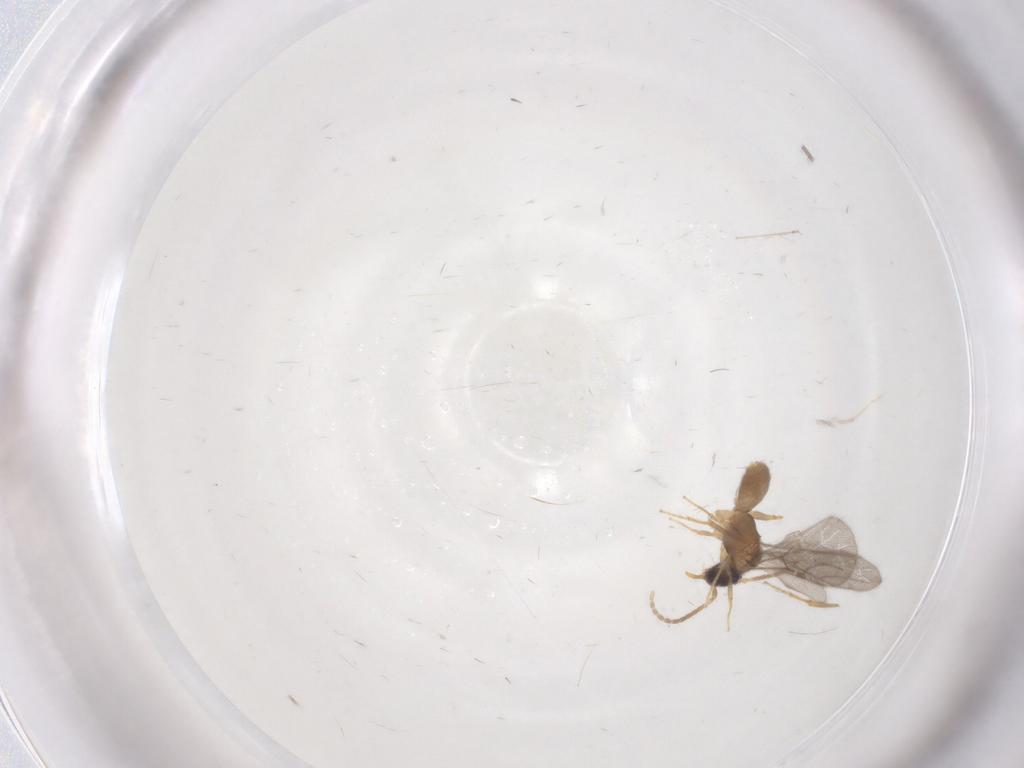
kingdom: Animalia
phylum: Arthropoda
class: Insecta
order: Hymenoptera
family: Bethylidae
